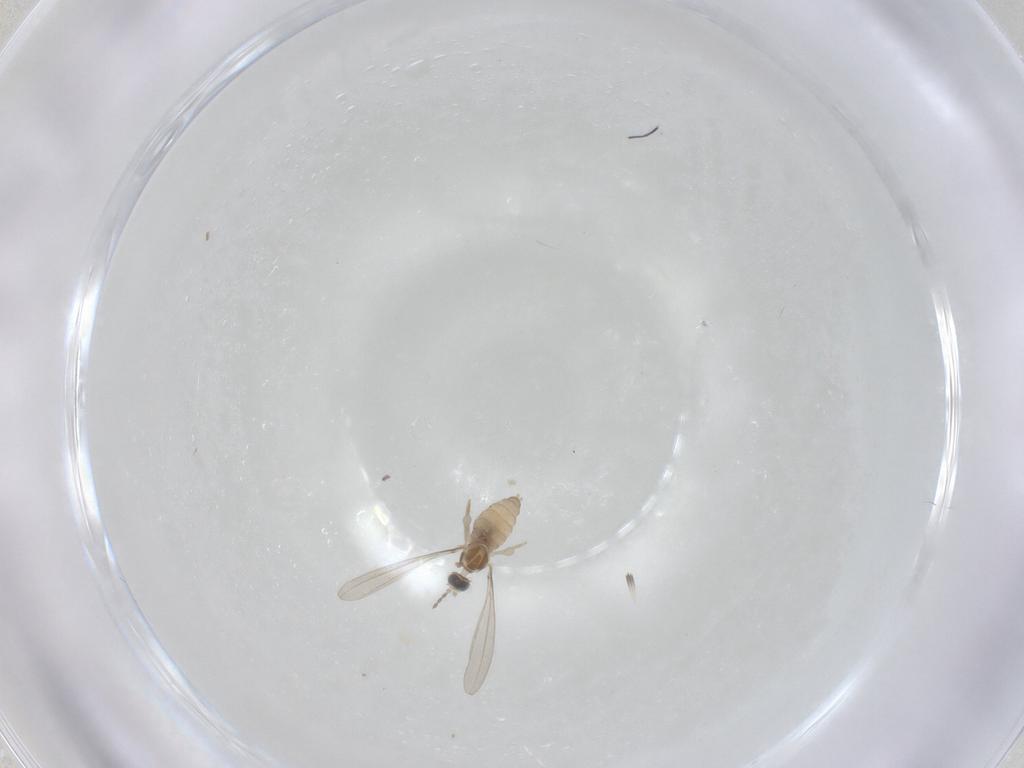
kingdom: Animalia
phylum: Arthropoda
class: Insecta
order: Diptera
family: Cecidomyiidae
